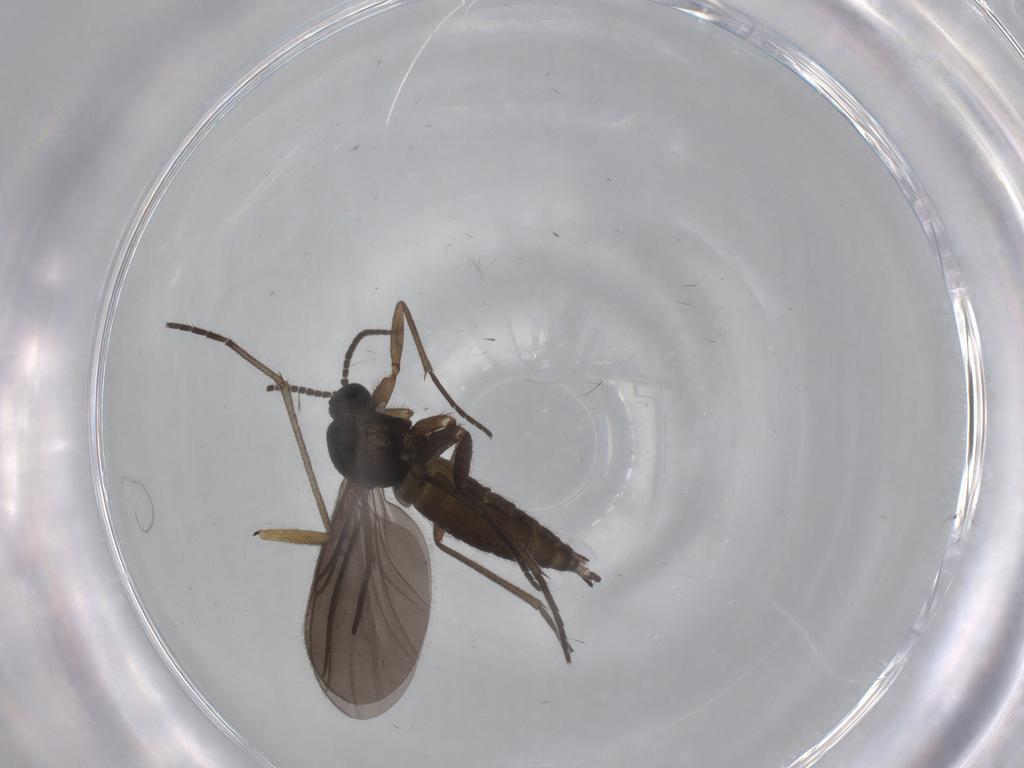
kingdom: Animalia
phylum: Arthropoda
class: Insecta
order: Diptera
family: Sciaridae
